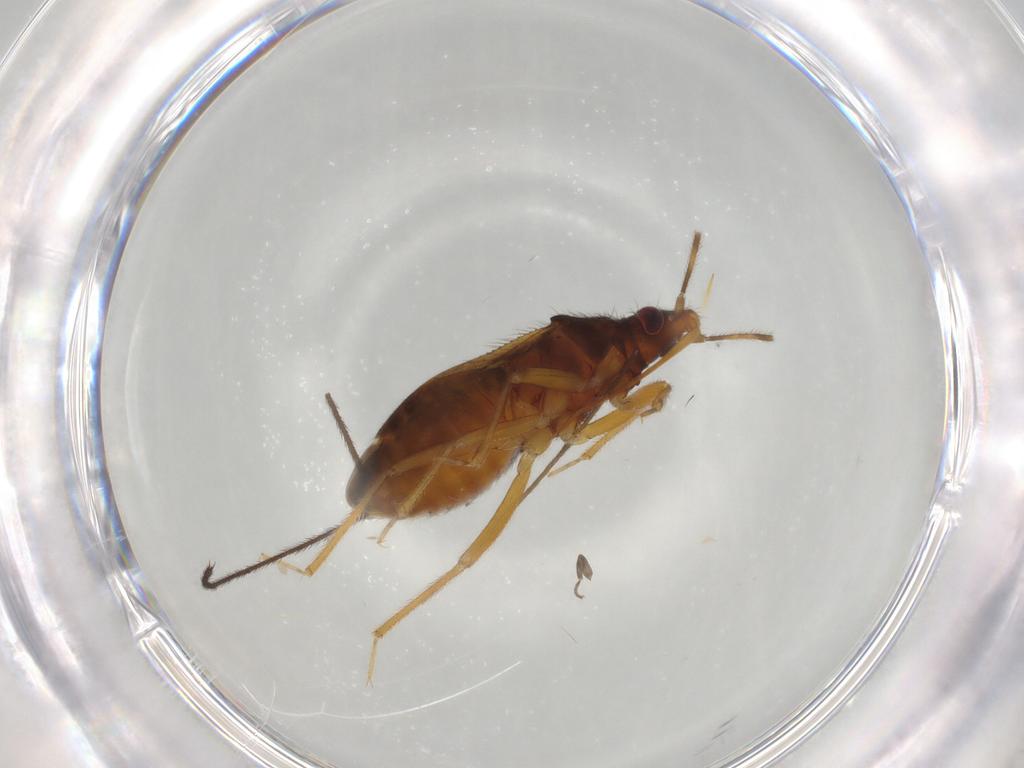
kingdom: Animalia
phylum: Arthropoda
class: Insecta
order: Hemiptera
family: Anthocoridae
